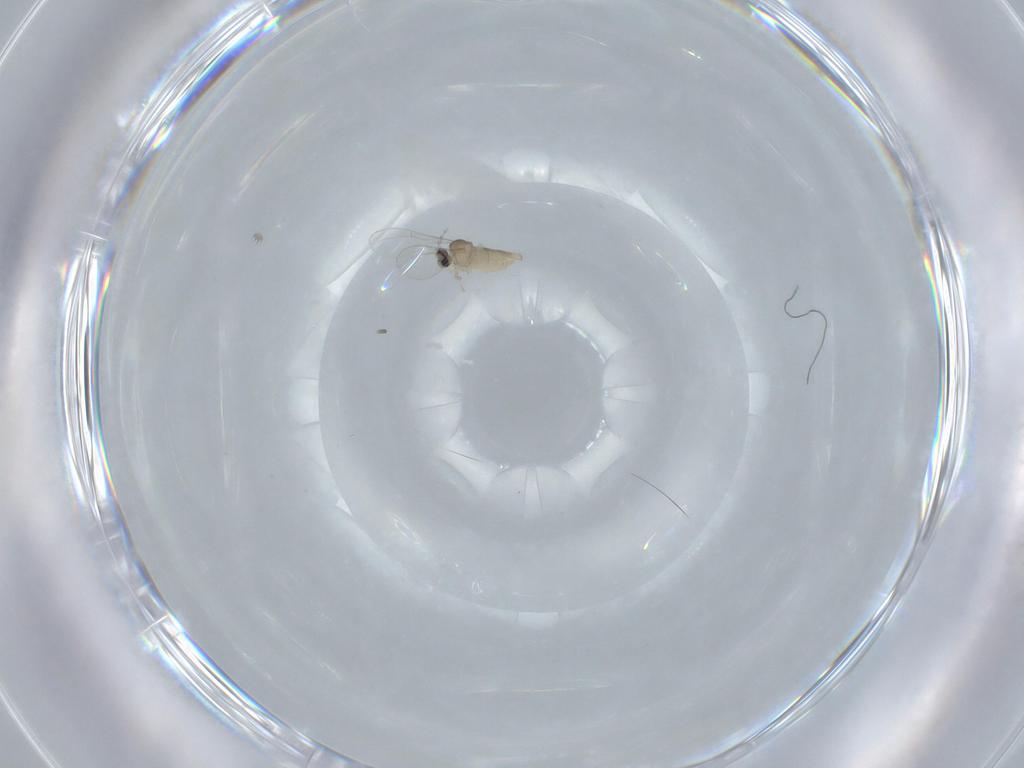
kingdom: Animalia
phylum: Arthropoda
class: Insecta
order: Diptera
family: Cecidomyiidae
